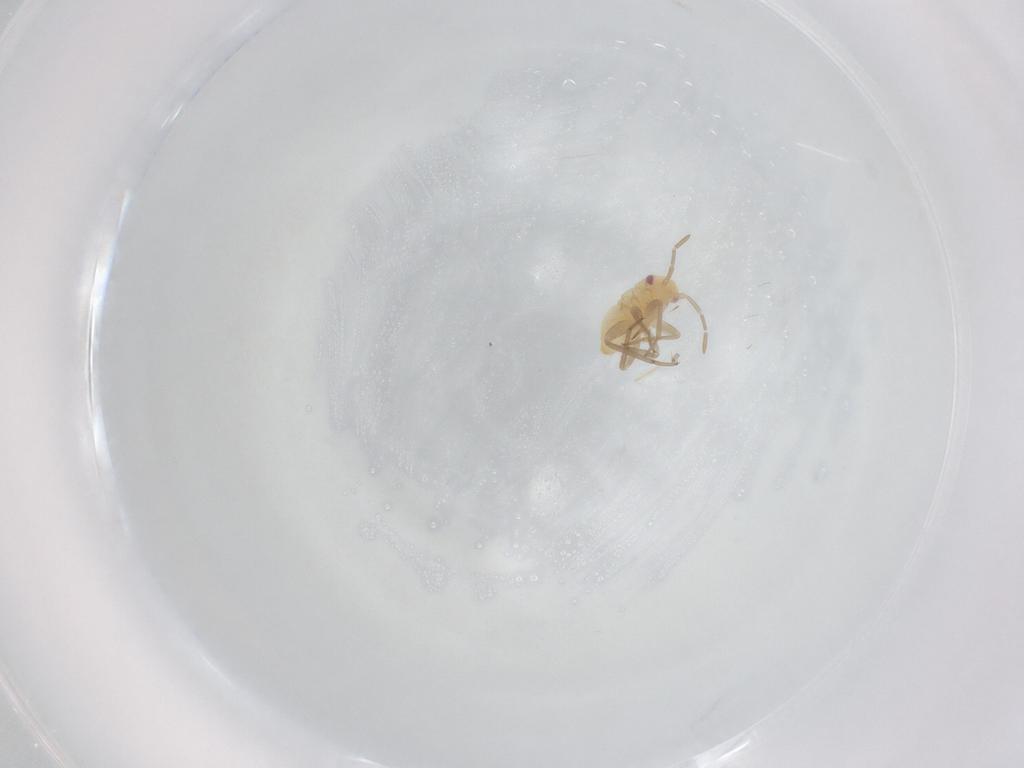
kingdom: Animalia
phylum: Arthropoda
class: Insecta
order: Hemiptera
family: Miridae
